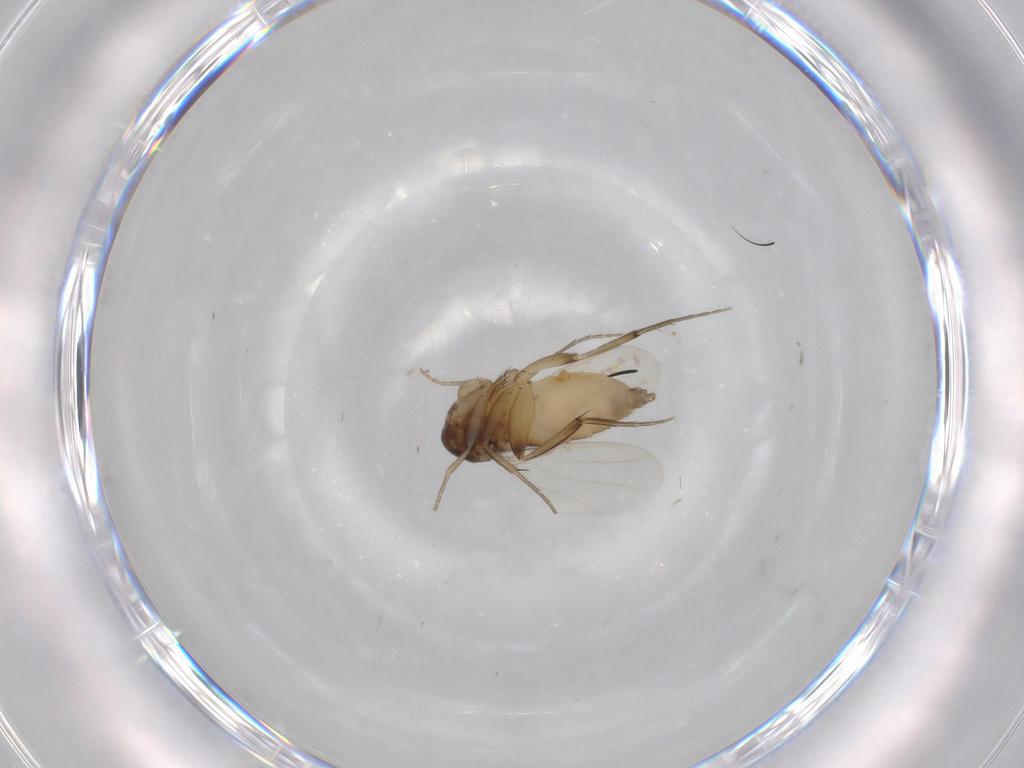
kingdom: Animalia
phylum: Arthropoda
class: Insecta
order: Diptera
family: Phoridae
